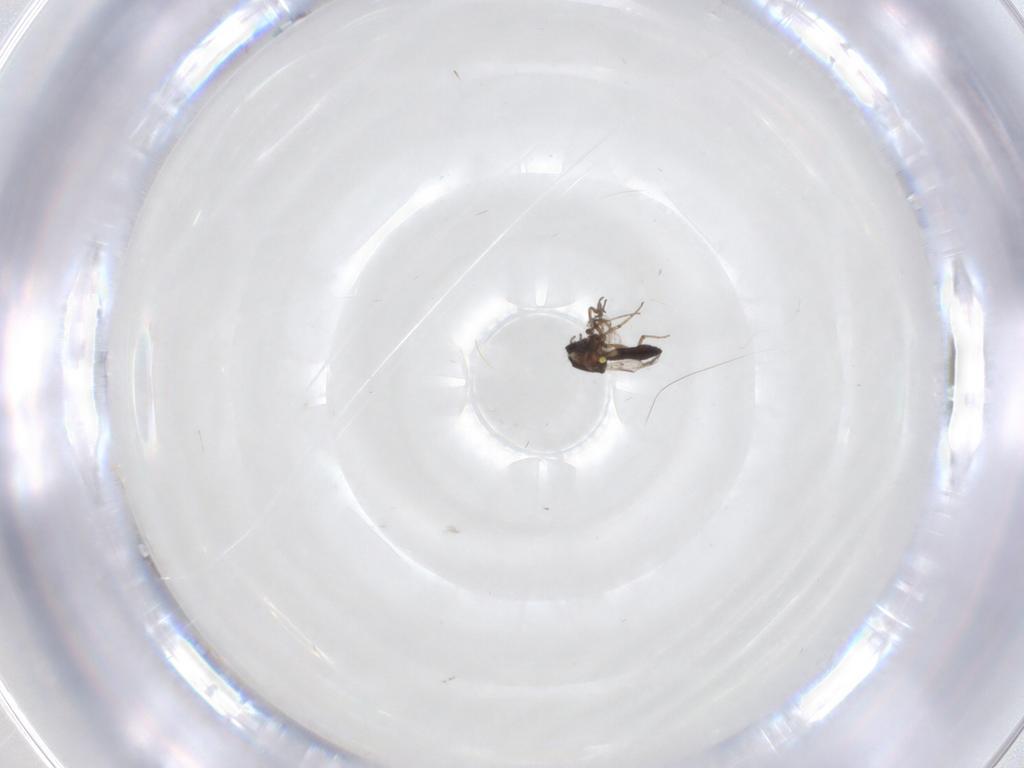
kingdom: Animalia
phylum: Arthropoda
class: Insecta
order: Diptera
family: Ceratopogonidae
